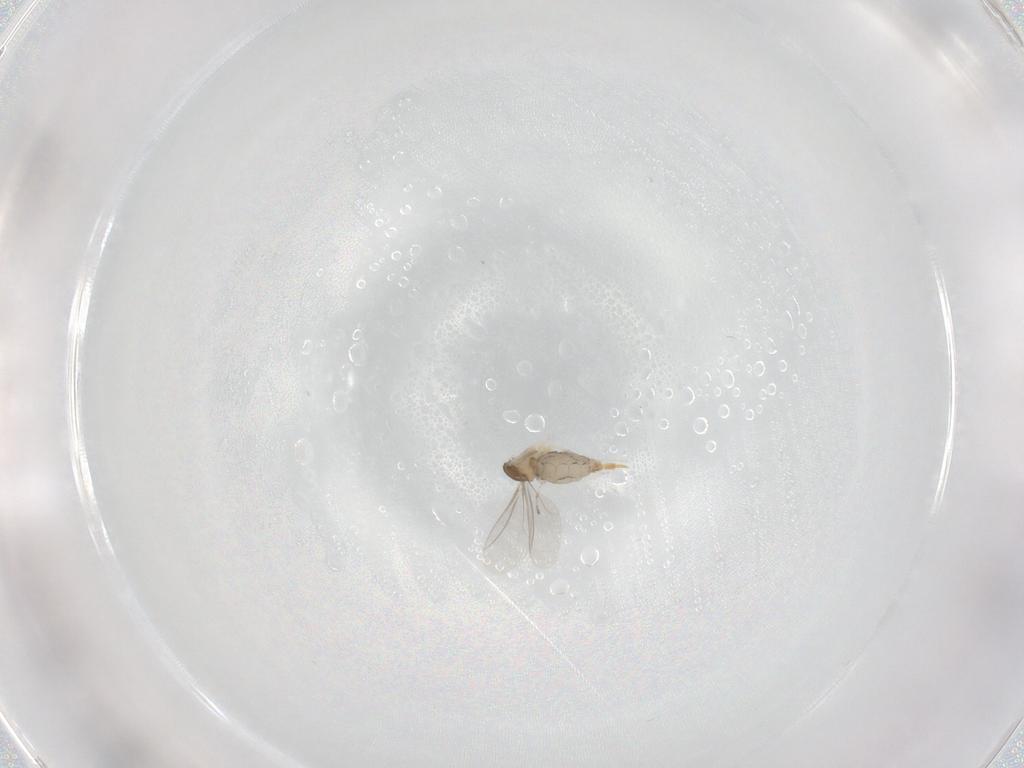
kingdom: Animalia
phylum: Arthropoda
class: Insecta
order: Diptera
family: Cecidomyiidae
